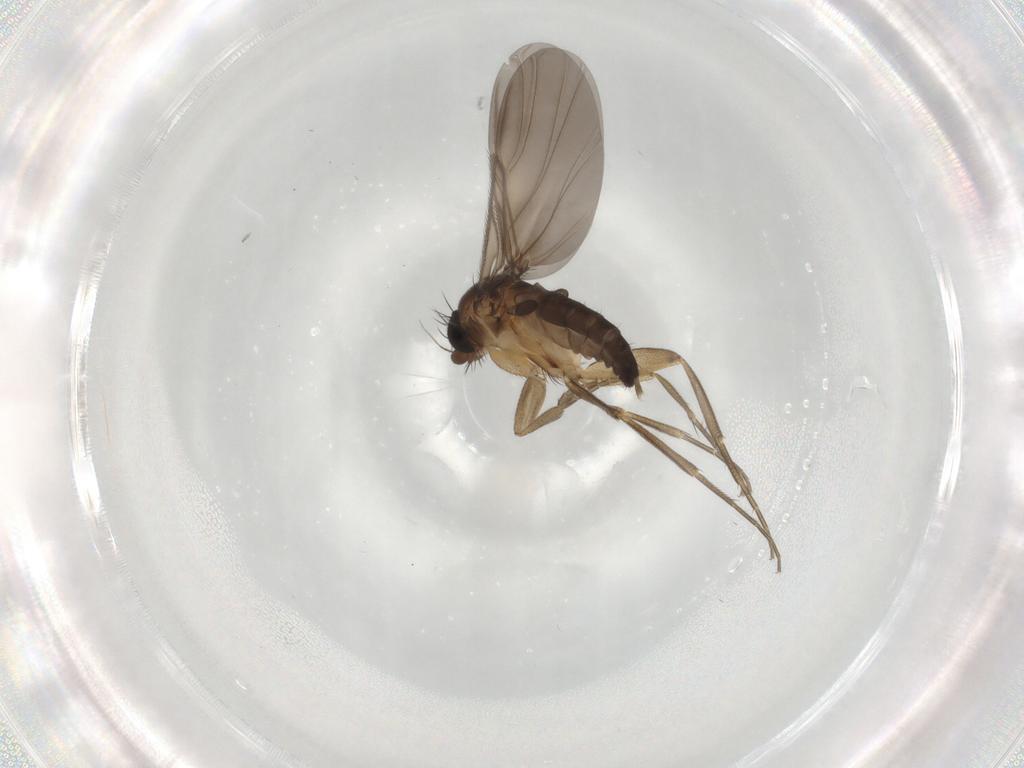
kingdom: Animalia
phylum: Arthropoda
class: Insecta
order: Diptera
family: Phoridae
